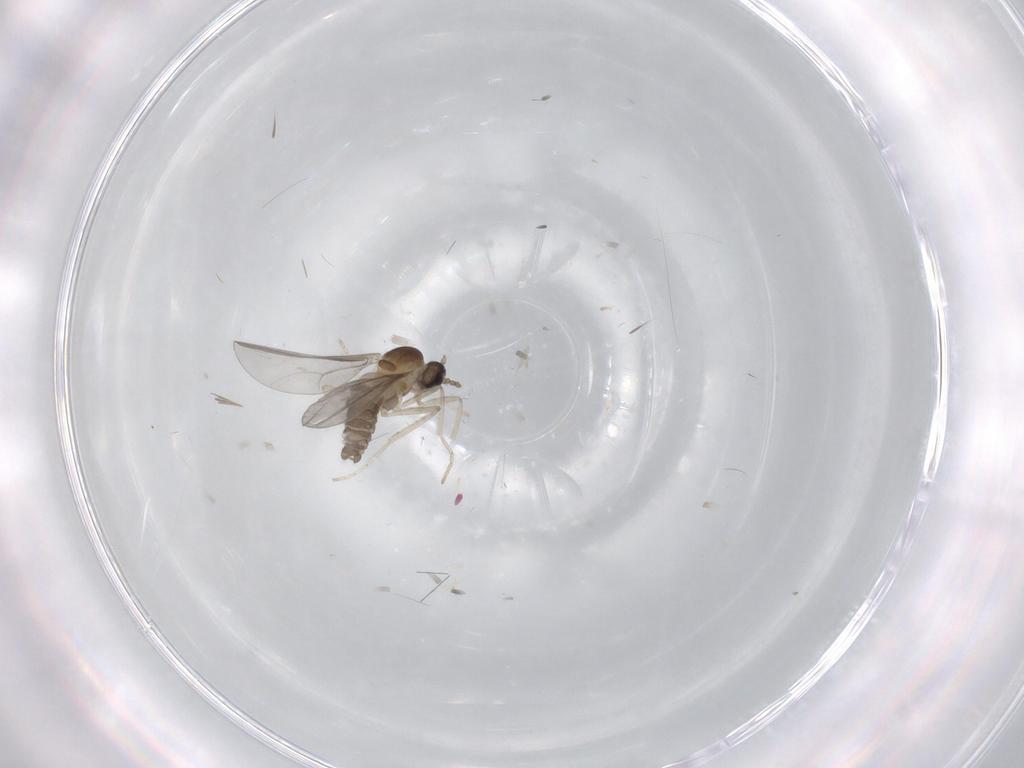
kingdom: Animalia
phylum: Arthropoda
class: Insecta
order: Diptera
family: Cecidomyiidae
